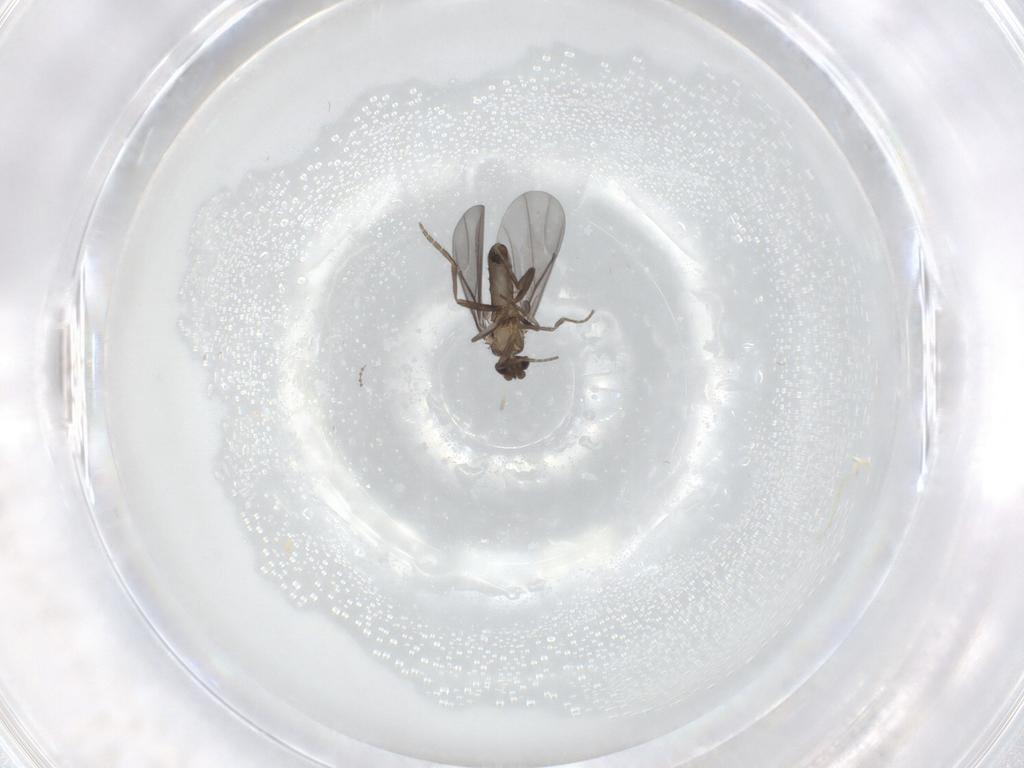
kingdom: Animalia
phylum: Arthropoda
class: Insecta
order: Diptera
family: Phoridae
